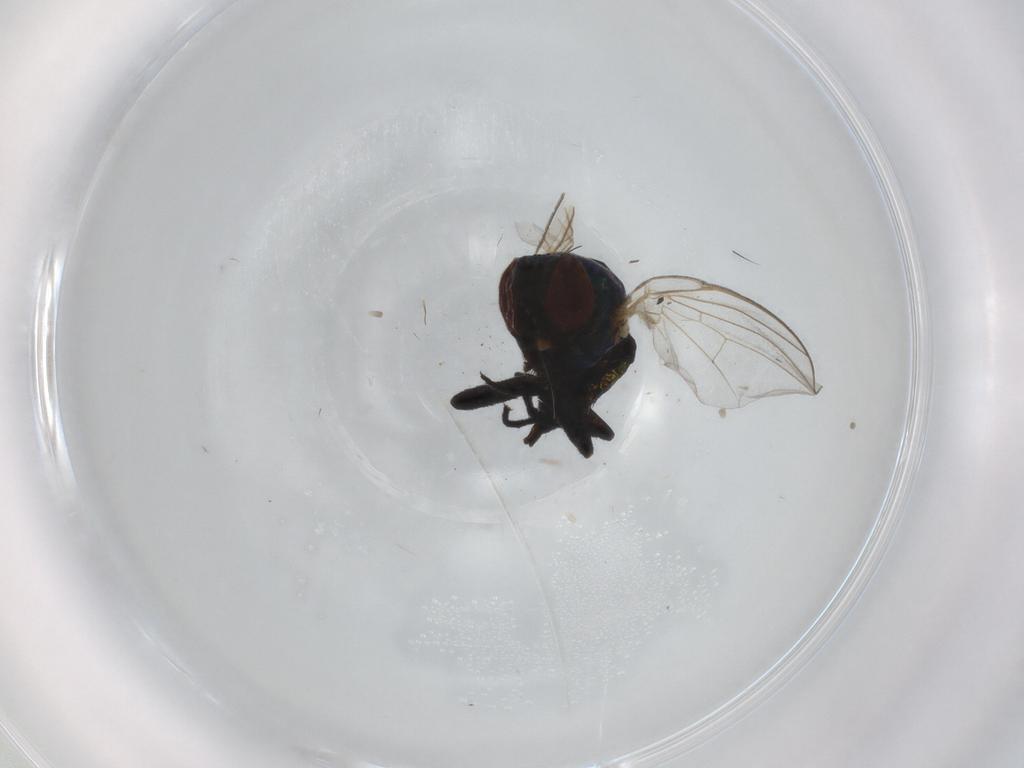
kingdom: Animalia
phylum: Arthropoda
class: Insecta
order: Diptera
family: Agromyzidae
